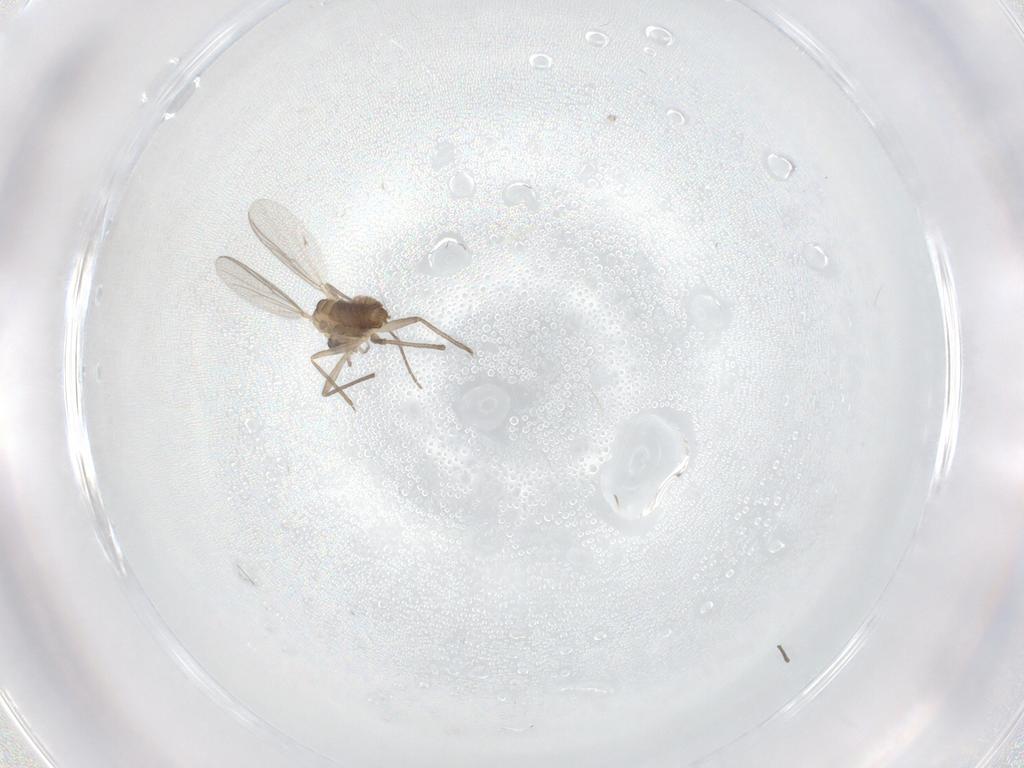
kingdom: Animalia
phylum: Arthropoda
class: Insecta
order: Diptera
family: Chironomidae
